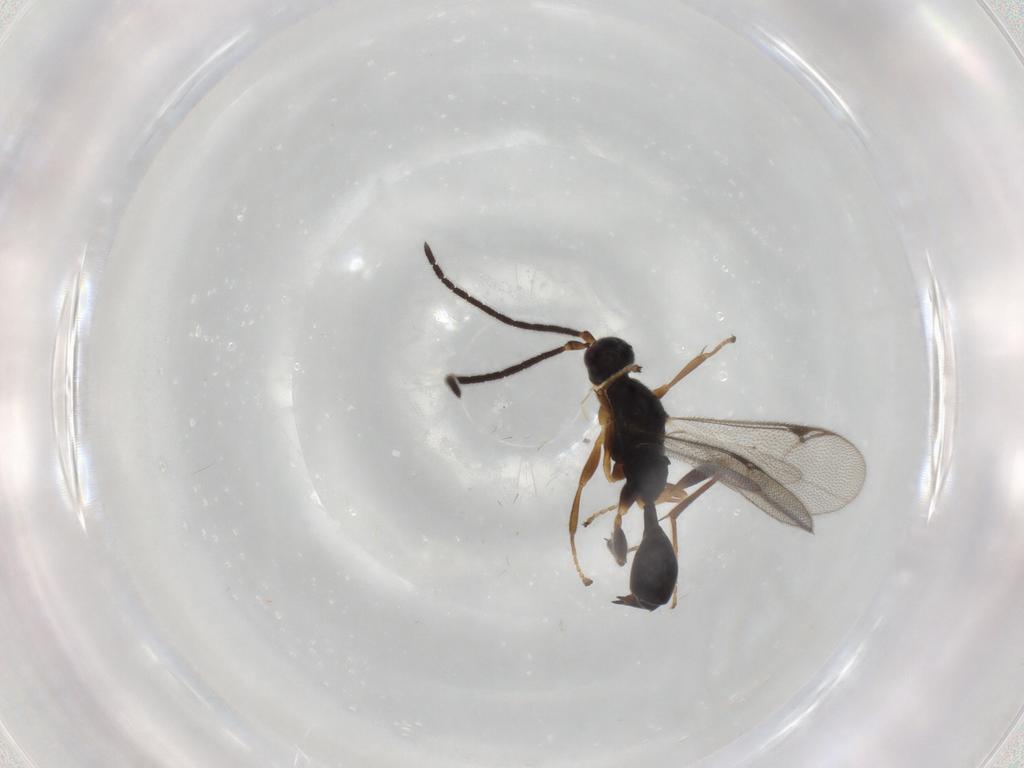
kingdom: Animalia
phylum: Arthropoda
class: Insecta
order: Hymenoptera
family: Proctotrupidae
